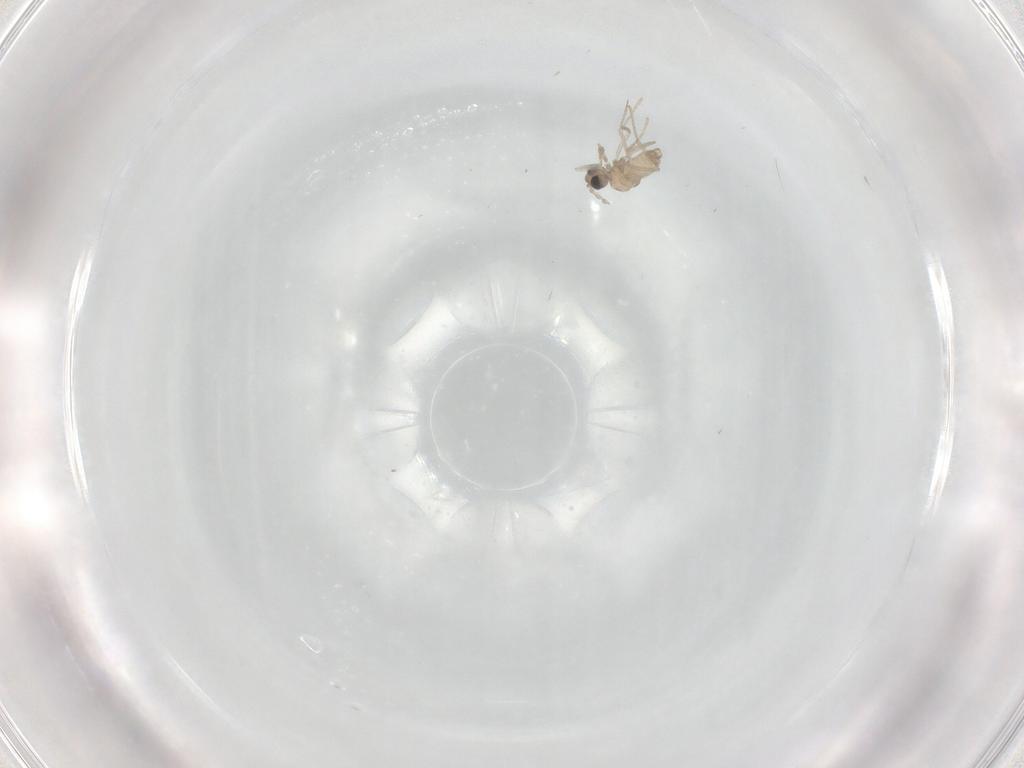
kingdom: Animalia
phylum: Arthropoda
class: Insecta
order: Diptera
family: Cecidomyiidae
